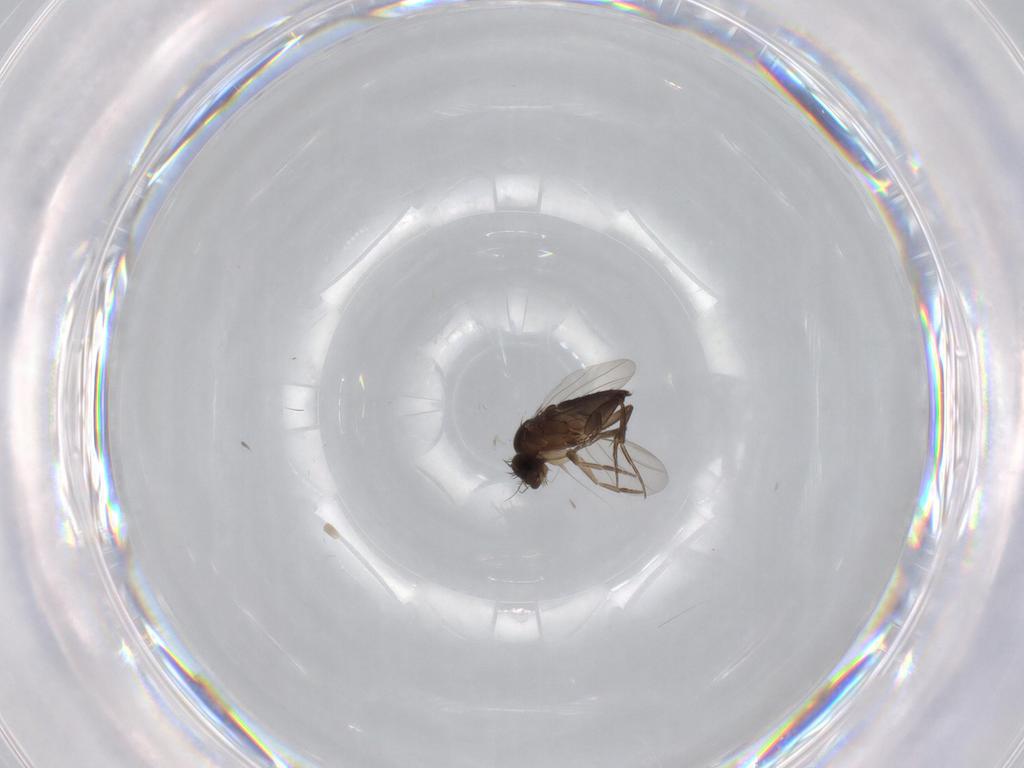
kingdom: Animalia
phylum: Arthropoda
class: Insecta
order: Diptera
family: Phoridae
